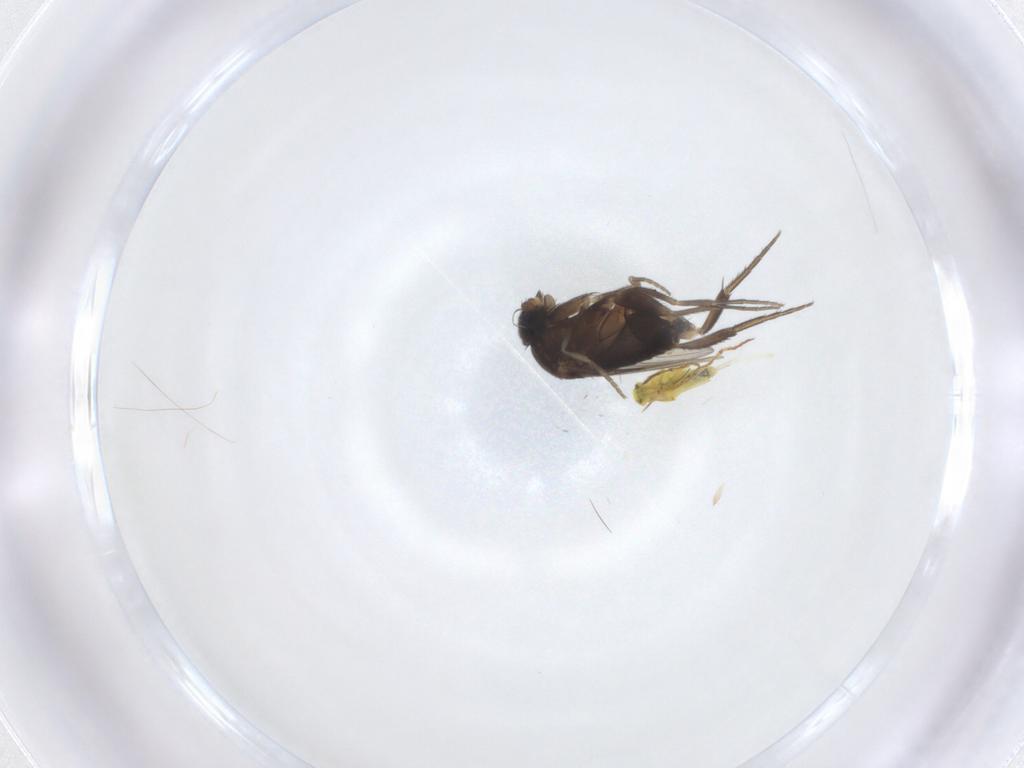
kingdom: Animalia
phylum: Arthropoda
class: Insecta
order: Diptera
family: Phoridae
